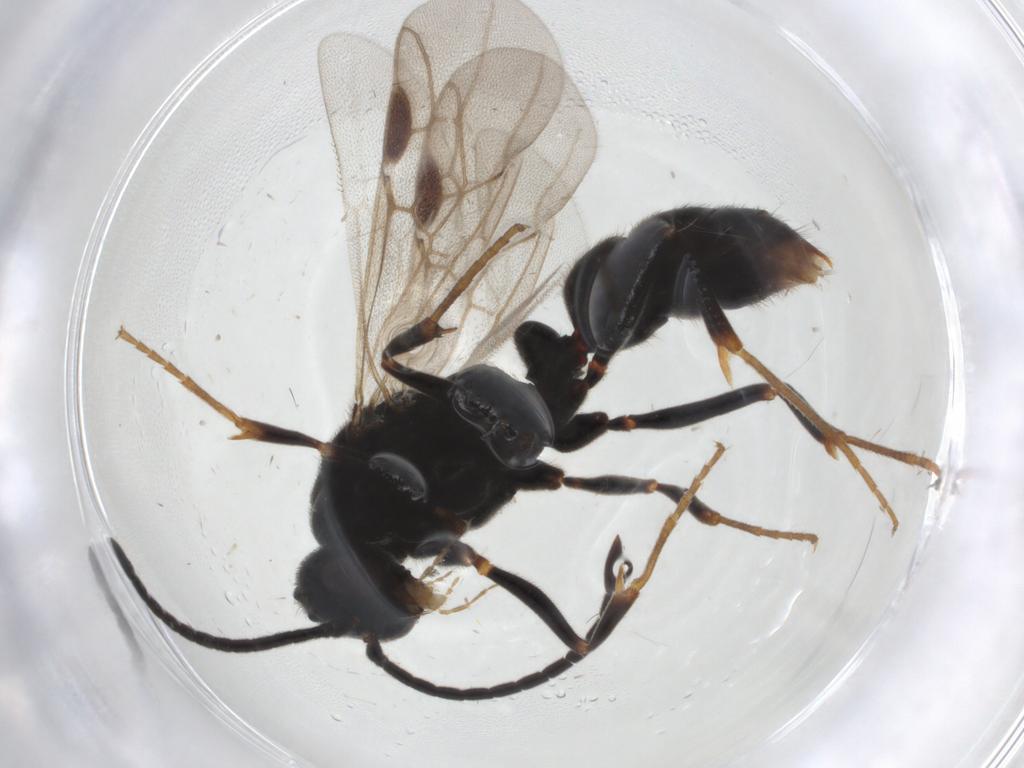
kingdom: Animalia
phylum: Arthropoda
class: Insecta
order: Hymenoptera
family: Formicidae
